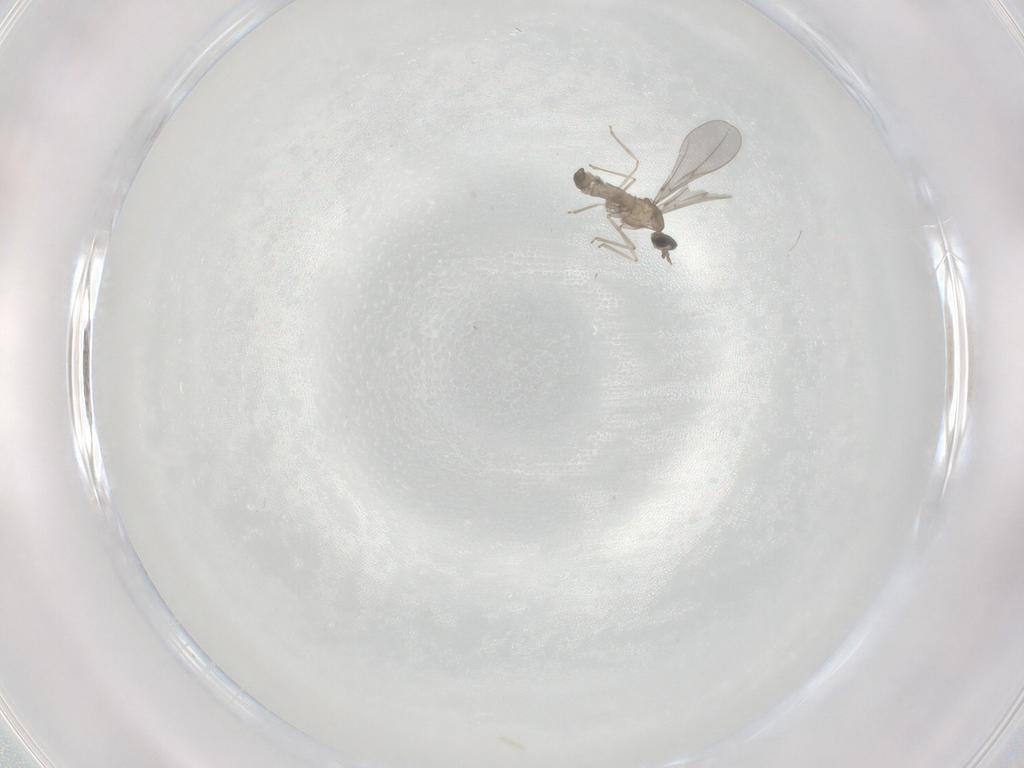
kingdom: Animalia
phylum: Arthropoda
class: Insecta
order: Diptera
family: Cecidomyiidae
